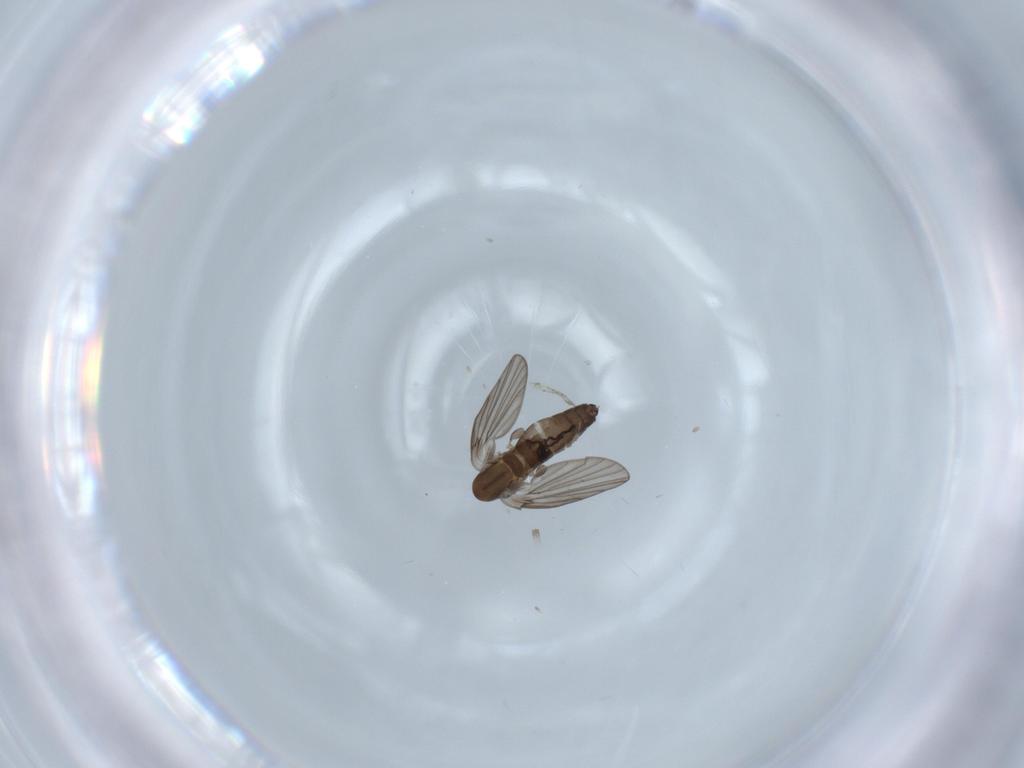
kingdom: Animalia
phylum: Arthropoda
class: Insecta
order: Diptera
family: Psychodidae
